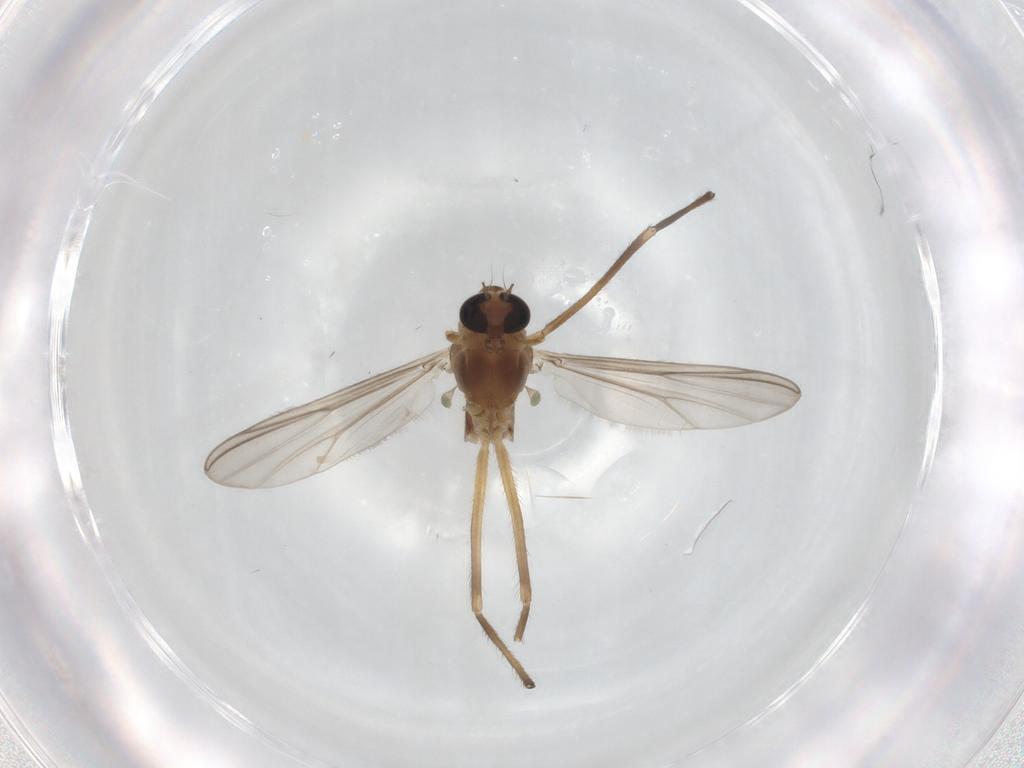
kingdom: Animalia
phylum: Arthropoda
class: Insecta
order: Diptera
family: Chironomidae
